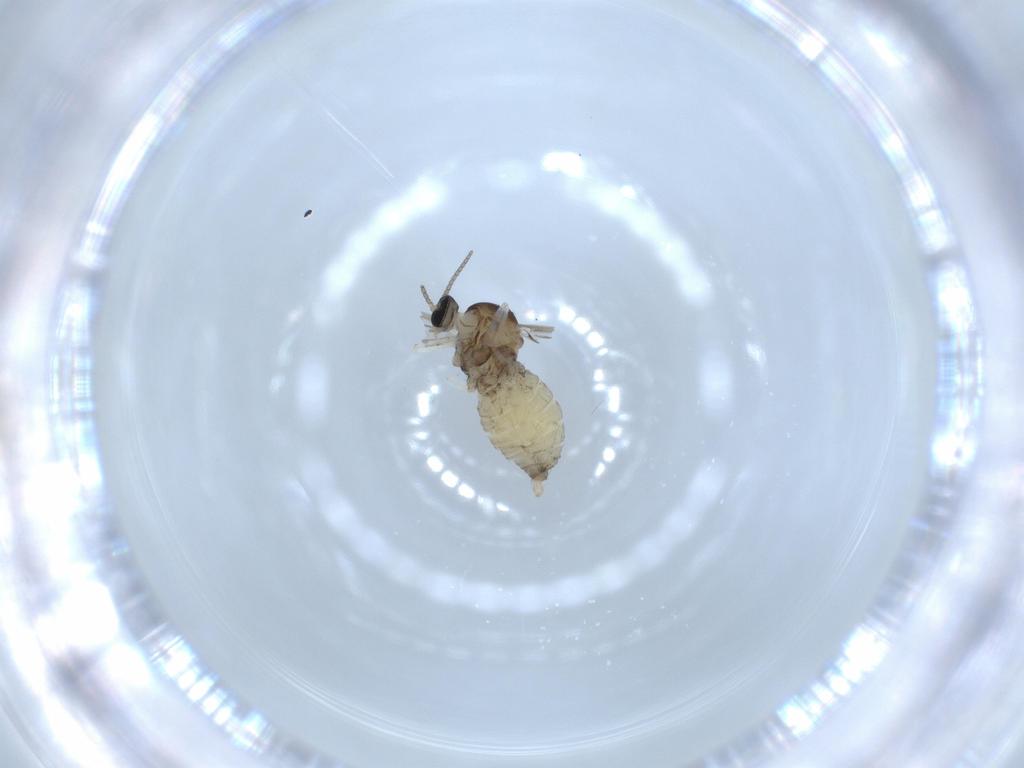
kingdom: Animalia
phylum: Arthropoda
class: Insecta
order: Diptera
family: Cecidomyiidae
